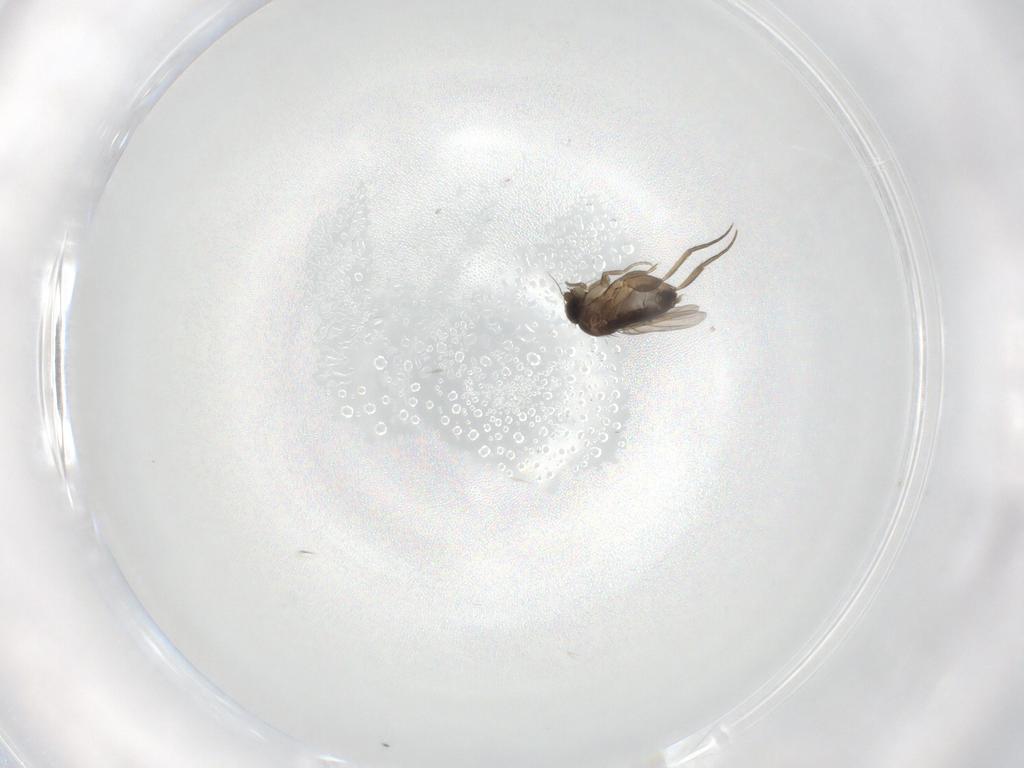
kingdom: Animalia
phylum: Arthropoda
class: Insecta
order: Diptera
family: Phoridae
